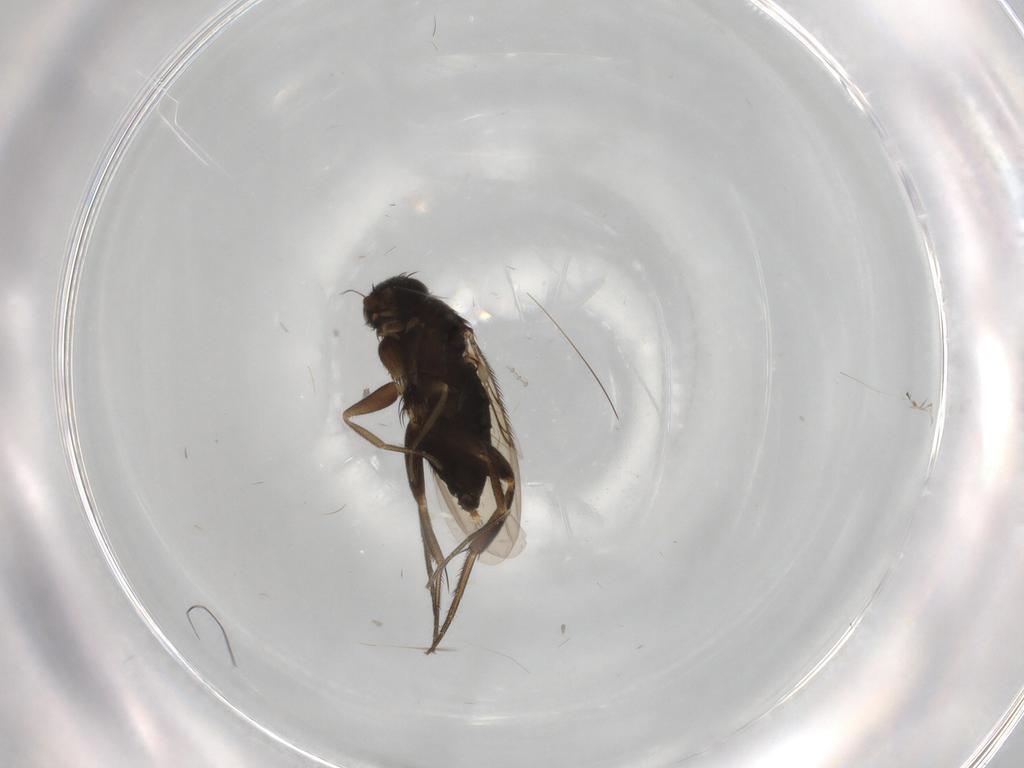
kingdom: Animalia
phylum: Arthropoda
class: Insecta
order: Diptera
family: Phoridae
